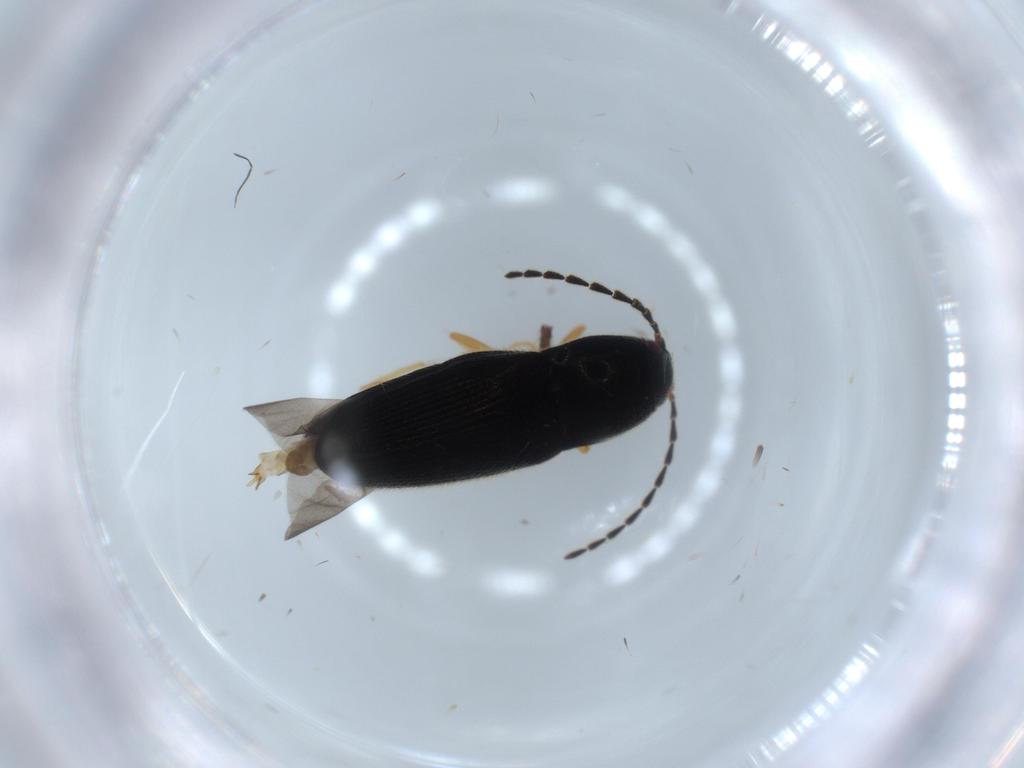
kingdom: Animalia
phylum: Arthropoda
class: Insecta
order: Coleoptera
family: Elateridae
